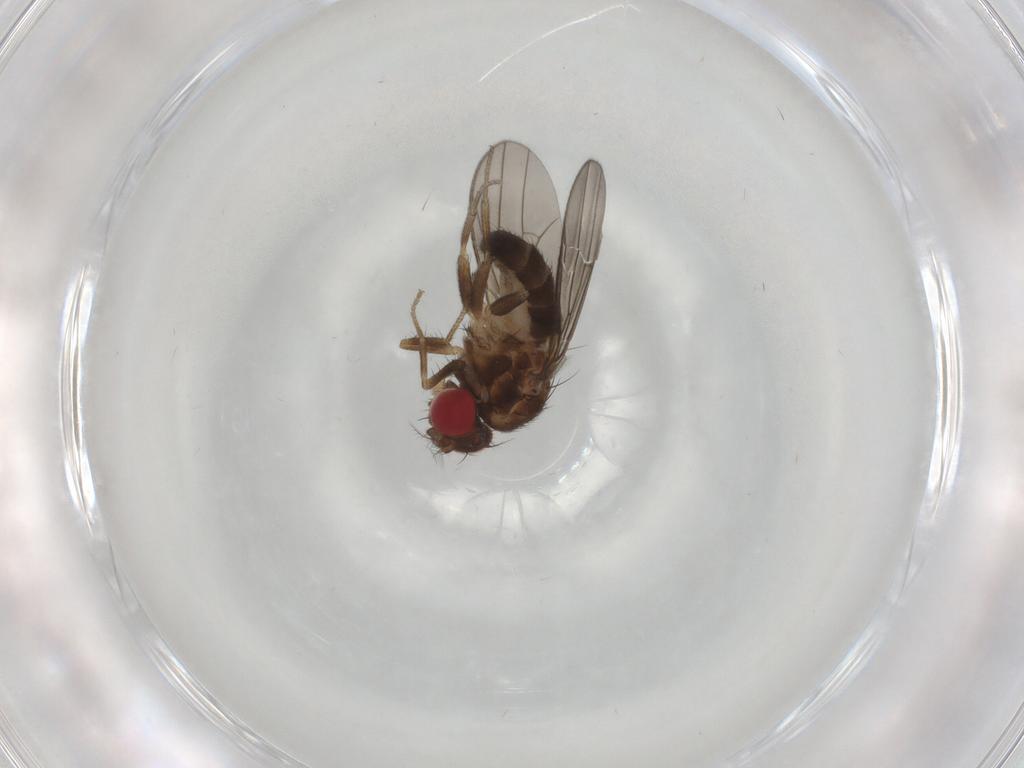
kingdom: Animalia
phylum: Arthropoda
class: Insecta
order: Diptera
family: Drosophilidae
